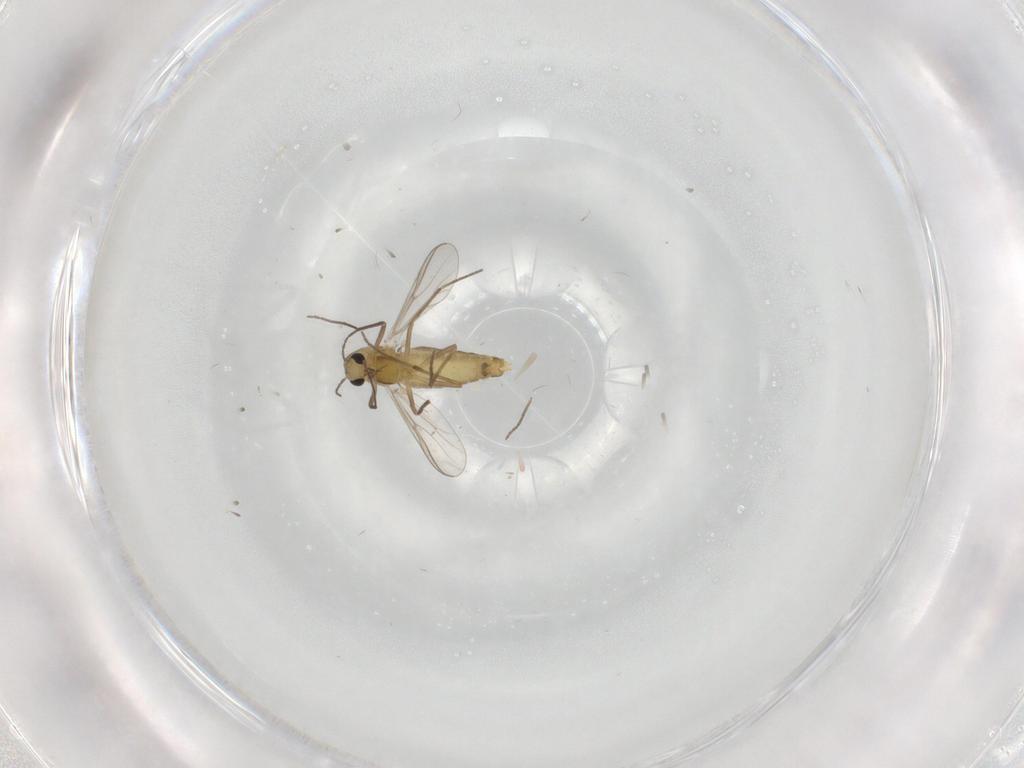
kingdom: Animalia
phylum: Arthropoda
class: Insecta
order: Diptera
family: Chironomidae
